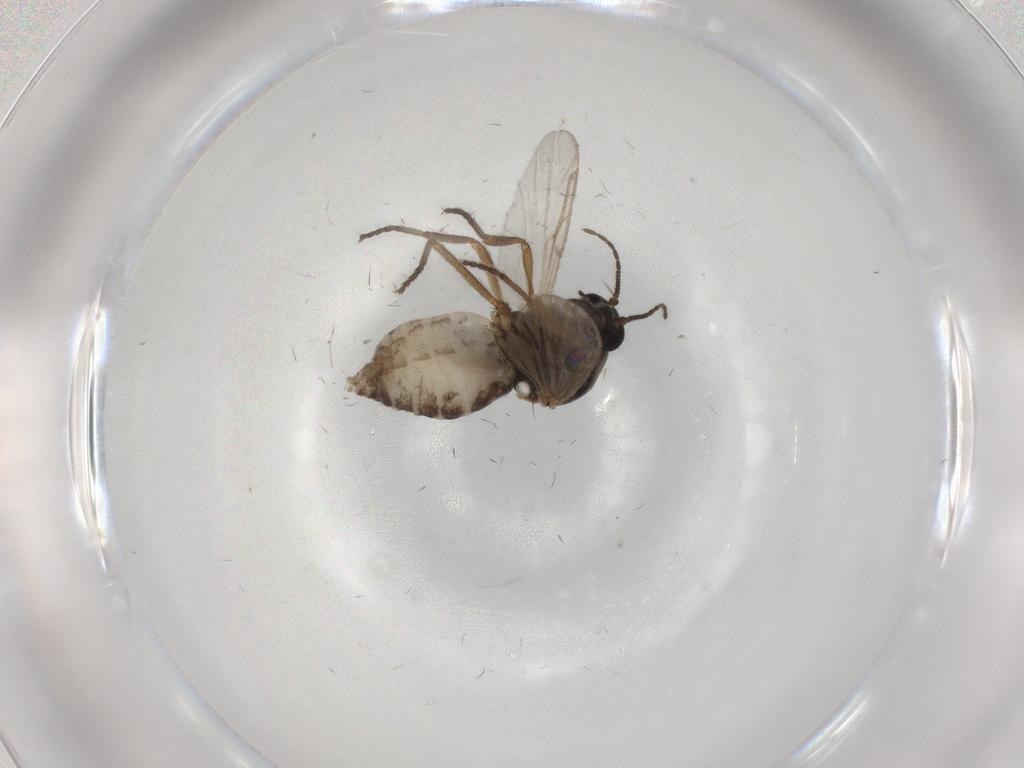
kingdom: Animalia
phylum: Arthropoda
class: Insecta
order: Diptera
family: Ceratopogonidae
